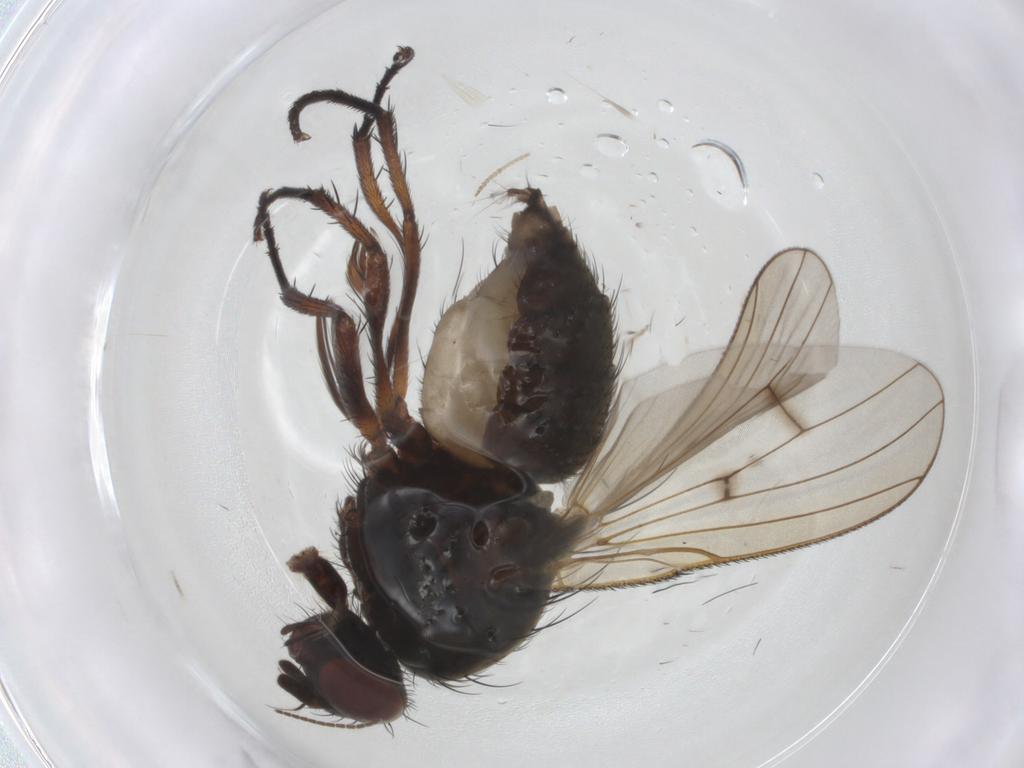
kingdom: Animalia
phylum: Arthropoda
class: Insecta
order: Diptera
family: Anthomyiidae
